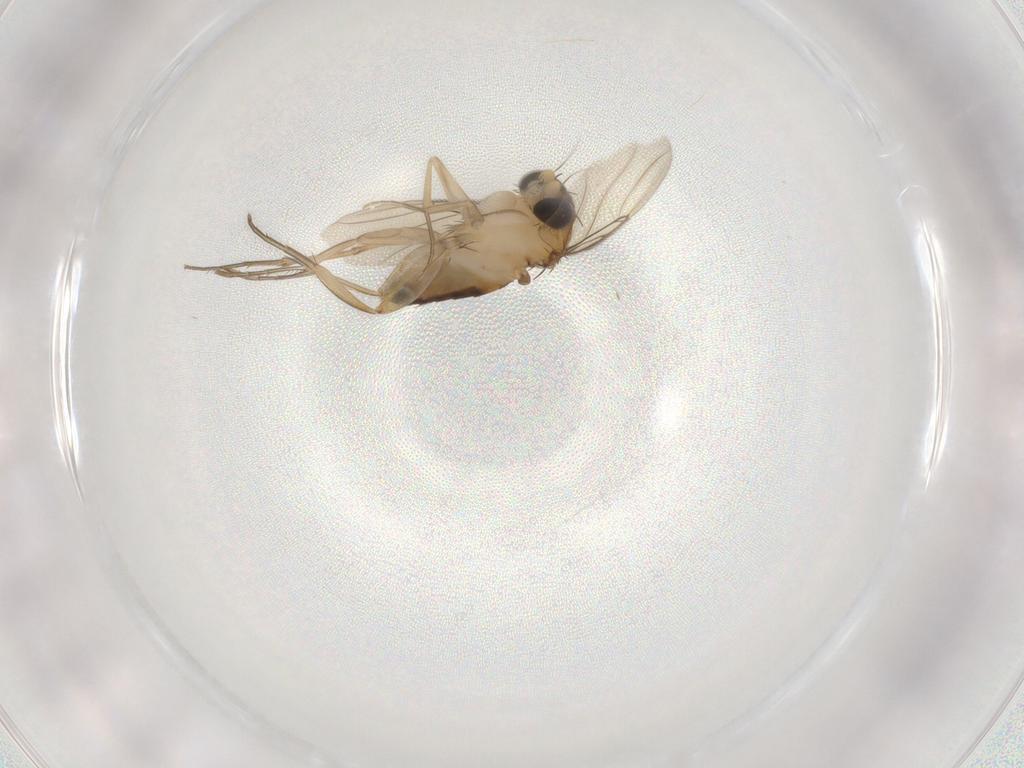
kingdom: Animalia
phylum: Arthropoda
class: Insecta
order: Diptera
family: Phoridae
